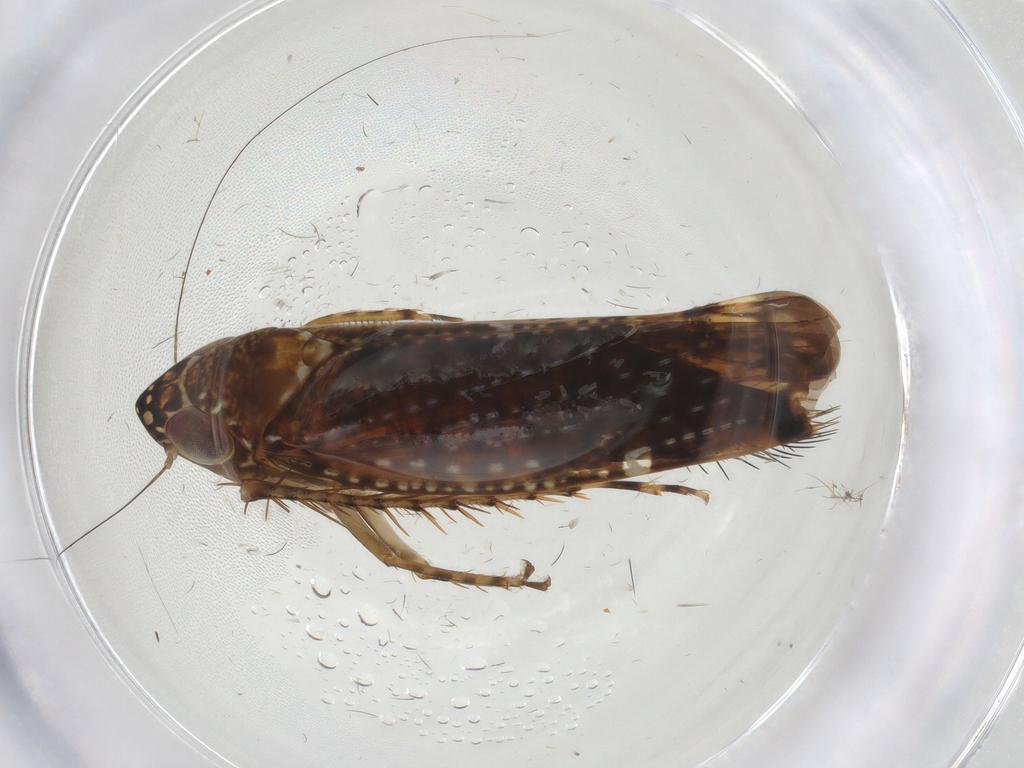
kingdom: Animalia
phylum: Arthropoda
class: Insecta
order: Hemiptera
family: Cicadellidae
